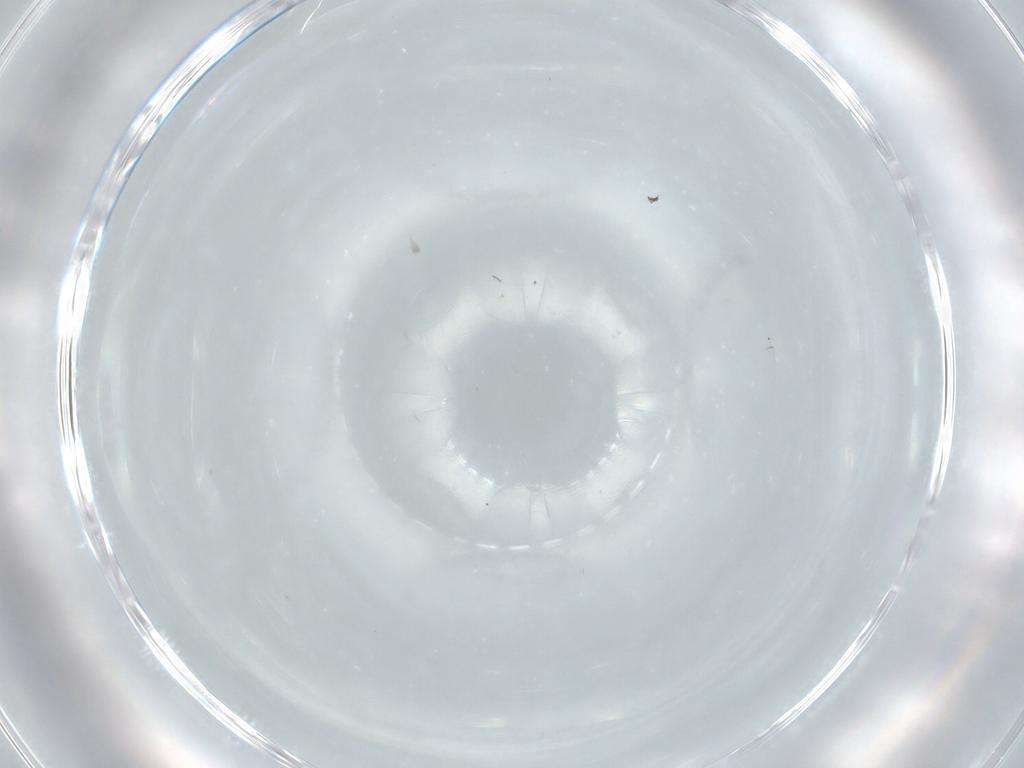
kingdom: Animalia
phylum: Arthropoda
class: Insecta
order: Diptera
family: Cecidomyiidae
